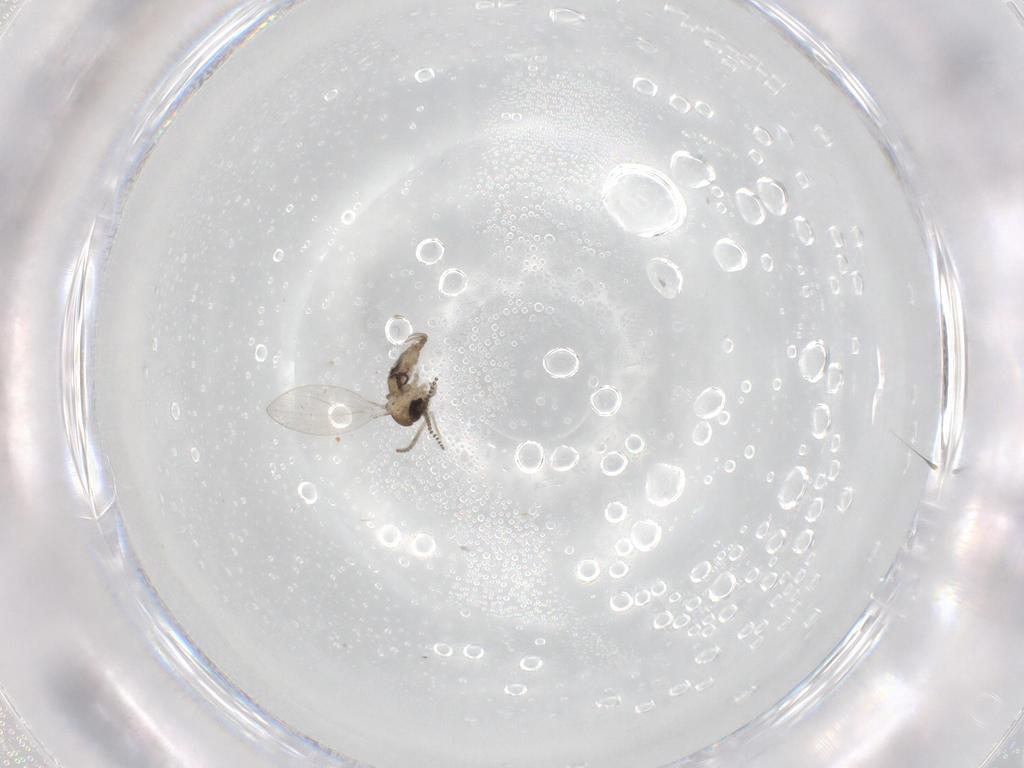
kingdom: Animalia
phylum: Arthropoda
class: Insecta
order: Diptera
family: Psychodidae
